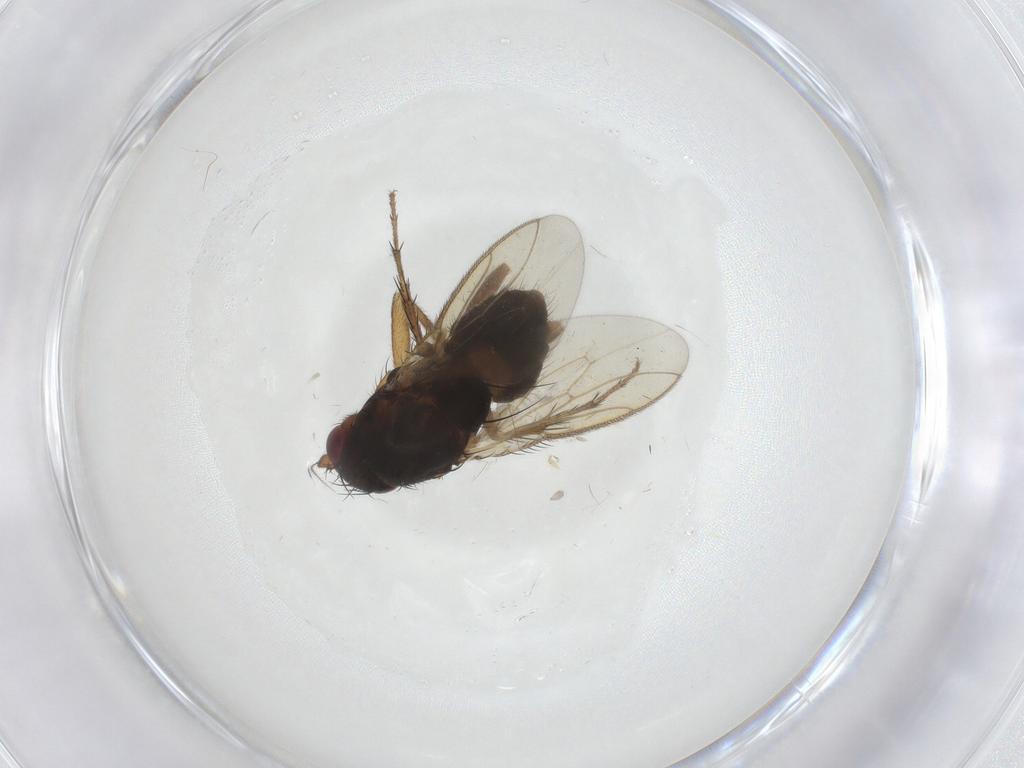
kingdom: Animalia
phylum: Arthropoda
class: Insecta
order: Diptera
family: Sphaeroceridae
